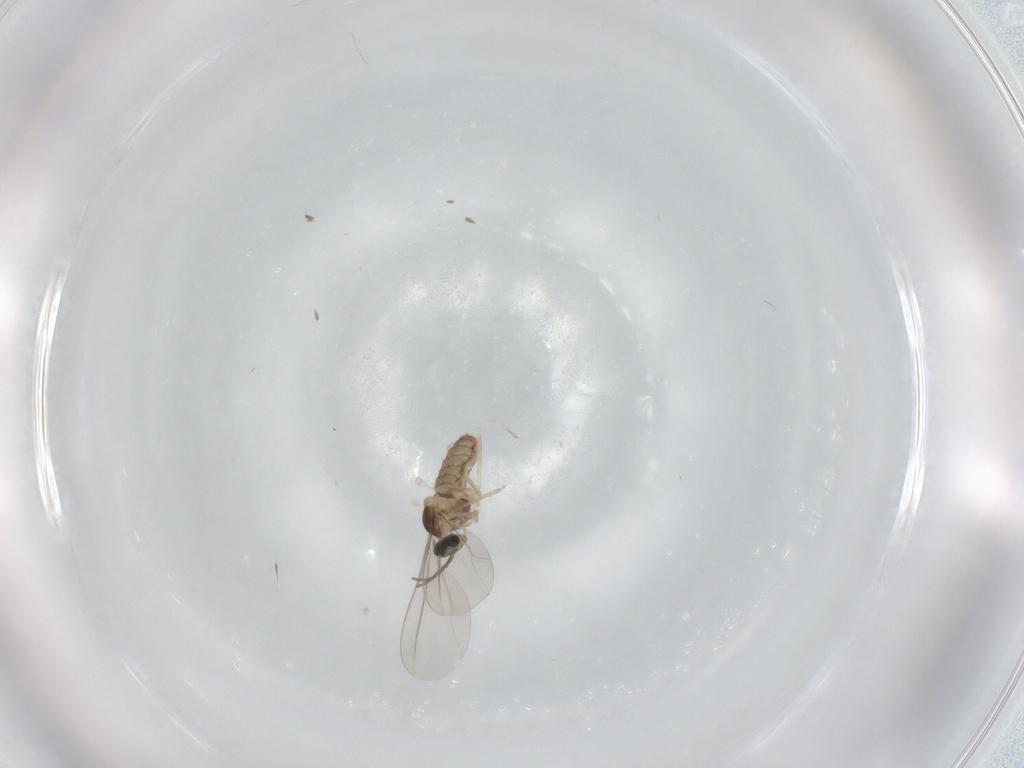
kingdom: Animalia
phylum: Arthropoda
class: Insecta
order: Diptera
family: Cecidomyiidae
